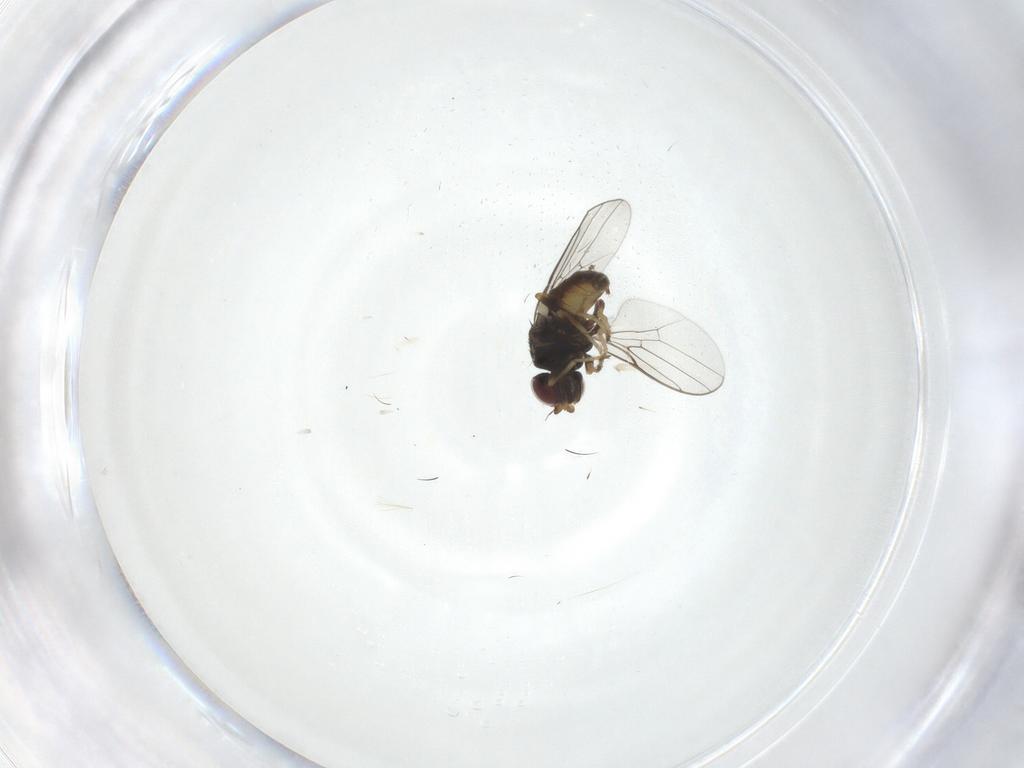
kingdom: Animalia
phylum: Arthropoda
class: Insecta
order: Diptera
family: Chloropidae
